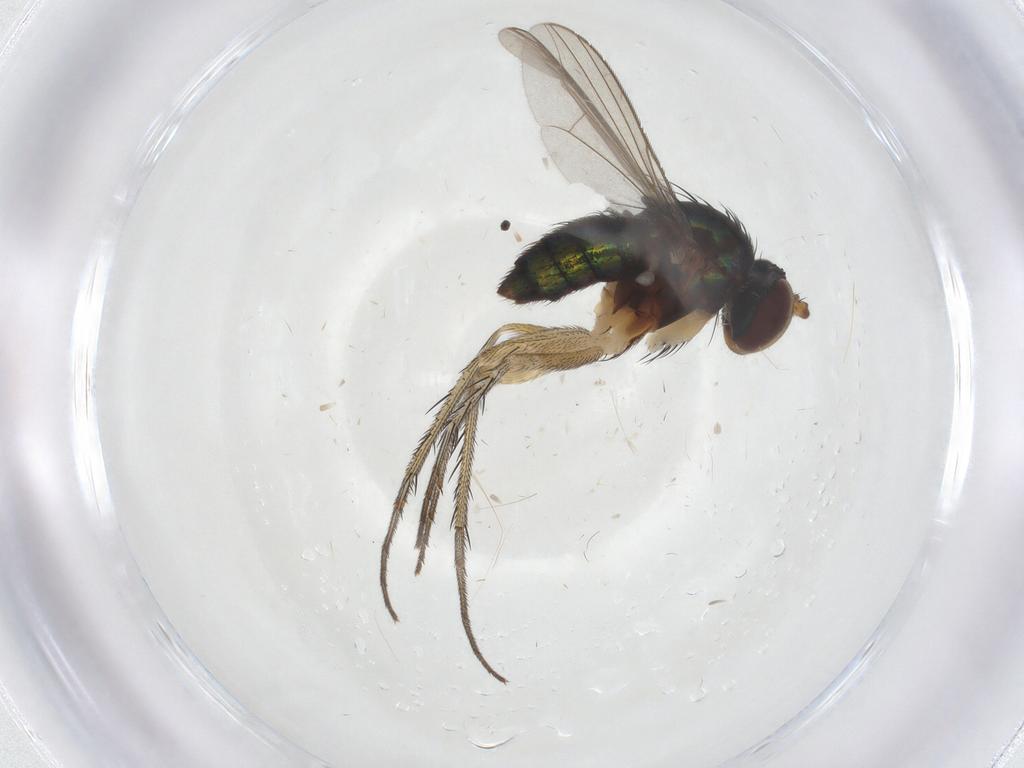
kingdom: Animalia
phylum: Arthropoda
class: Insecta
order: Diptera
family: Dolichopodidae
